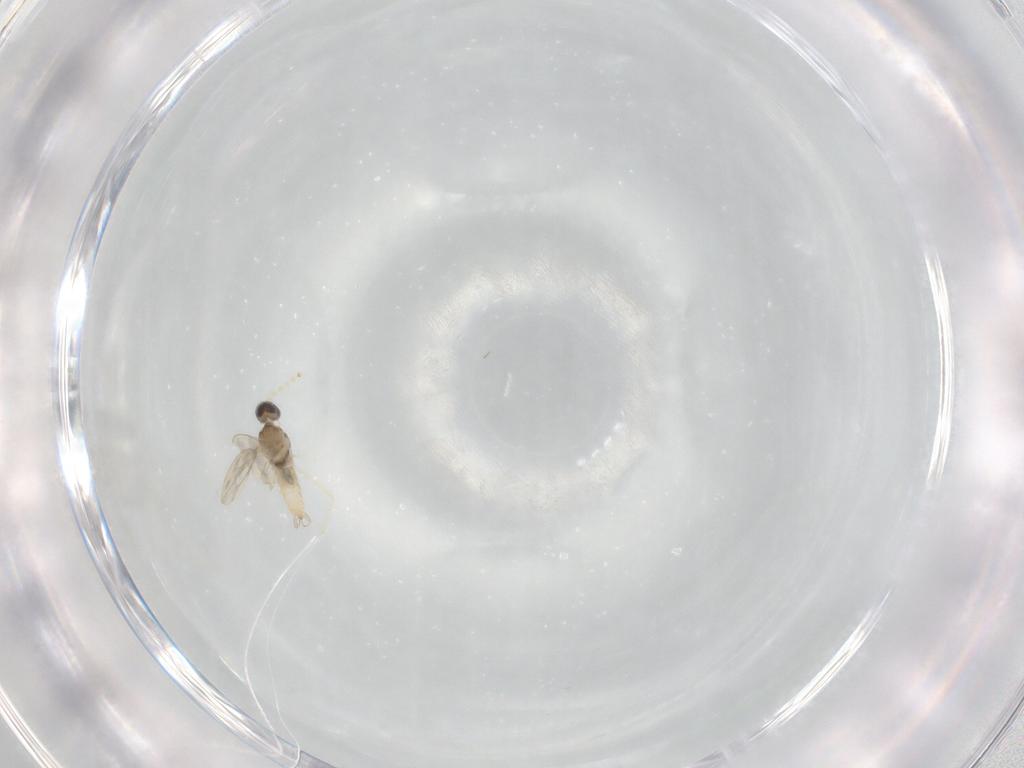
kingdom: Animalia
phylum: Arthropoda
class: Insecta
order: Diptera
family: Cecidomyiidae
